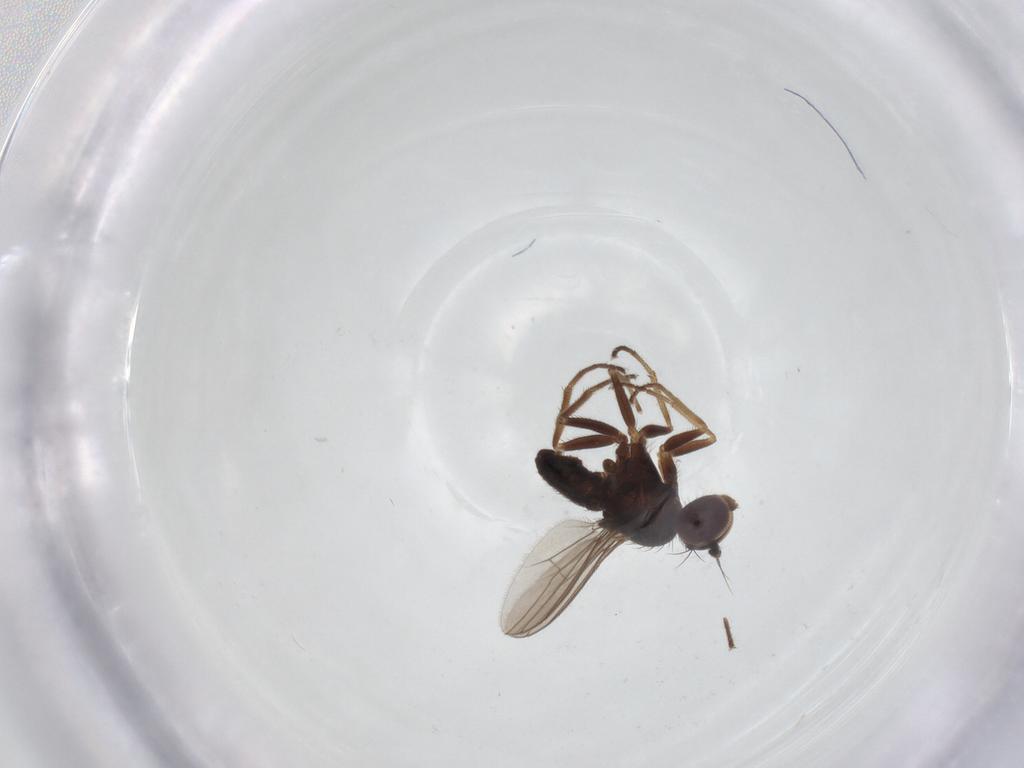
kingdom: Animalia
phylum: Arthropoda
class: Insecta
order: Diptera
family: Dolichopodidae
